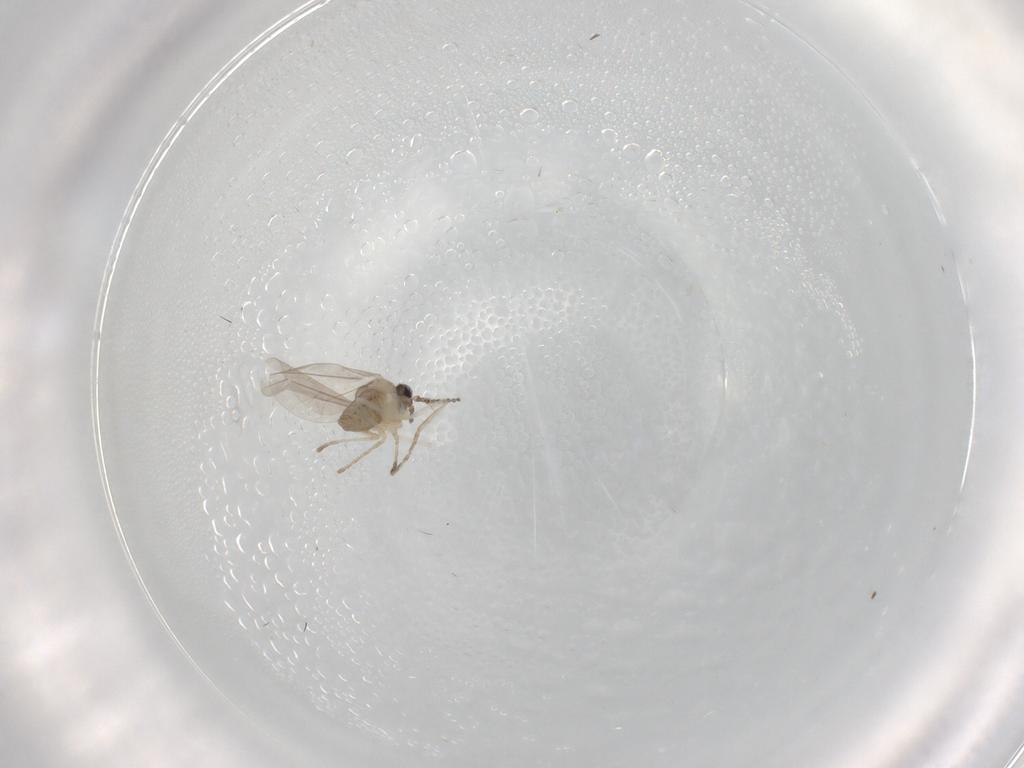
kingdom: Animalia
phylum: Arthropoda
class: Insecta
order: Diptera
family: Cecidomyiidae
